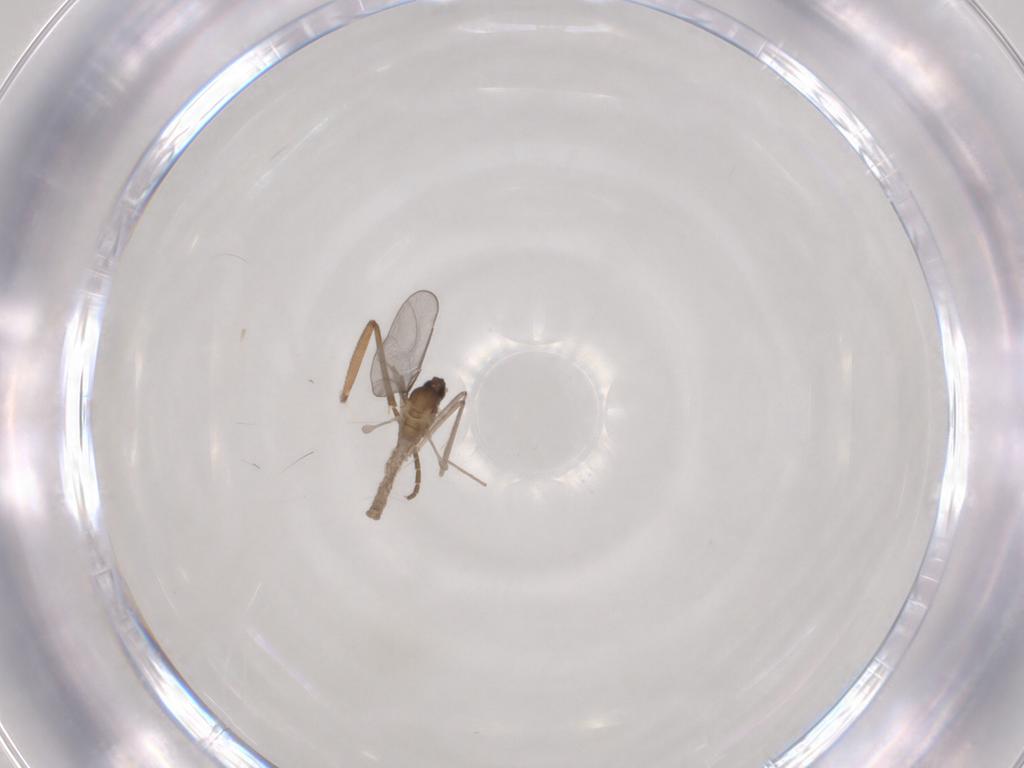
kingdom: Animalia
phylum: Arthropoda
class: Insecta
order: Diptera
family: Cecidomyiidae
